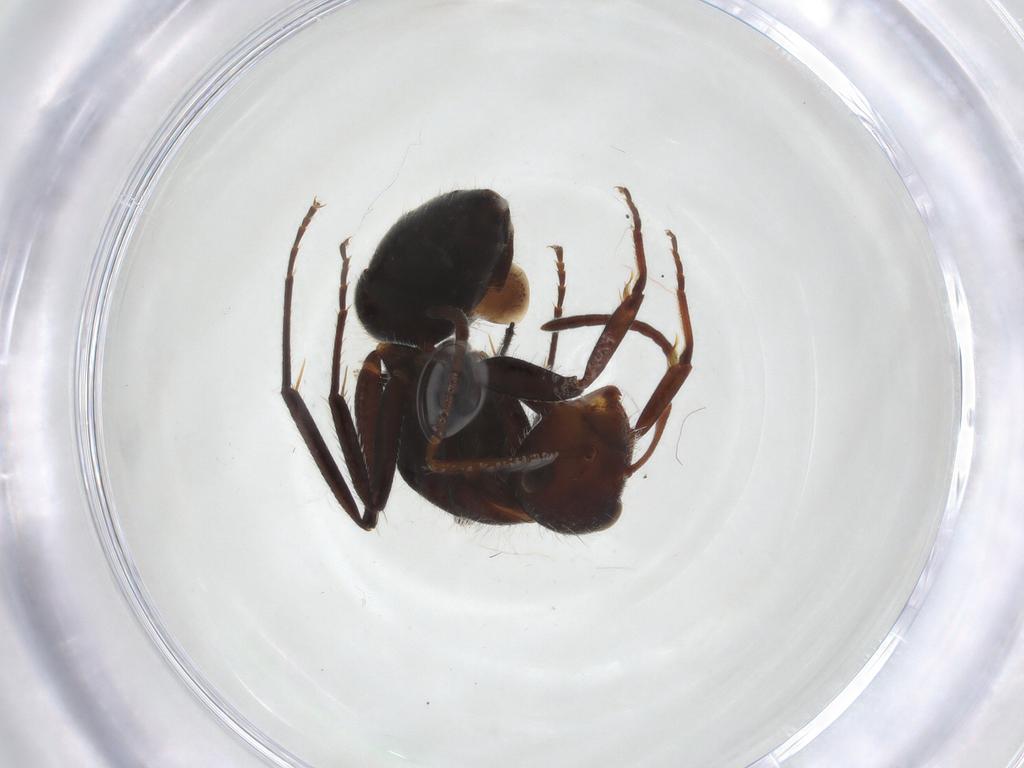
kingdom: Animalia
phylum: Arthropoda
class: Insecta
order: Hymenoptera
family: Formicidae
